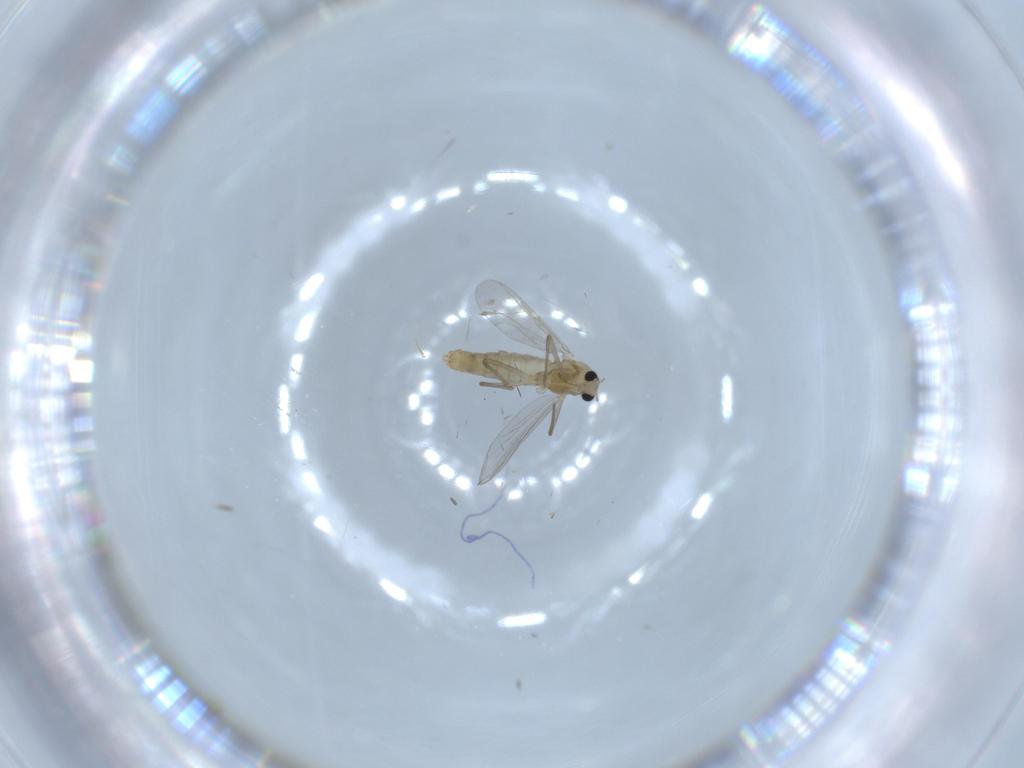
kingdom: Animalia
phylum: Arthropoda
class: Insecta
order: Diptera
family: Chironomidae
